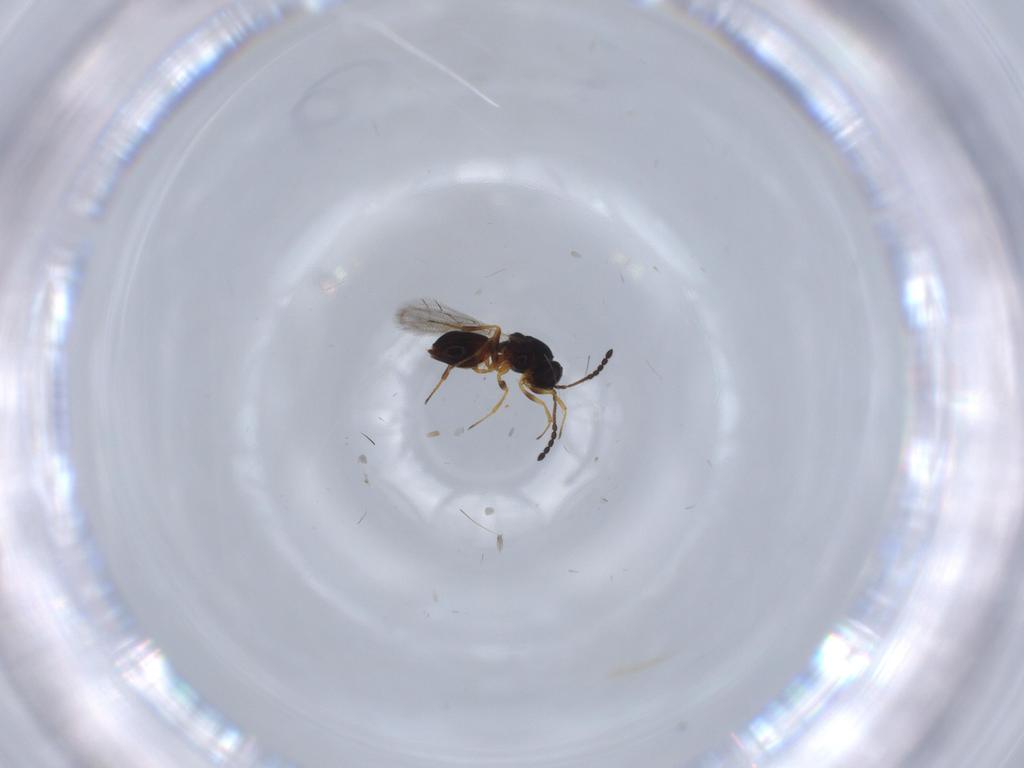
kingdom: Animalia
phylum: Arthropoda
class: Insecta
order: Hymenoptera
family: Figitidae
